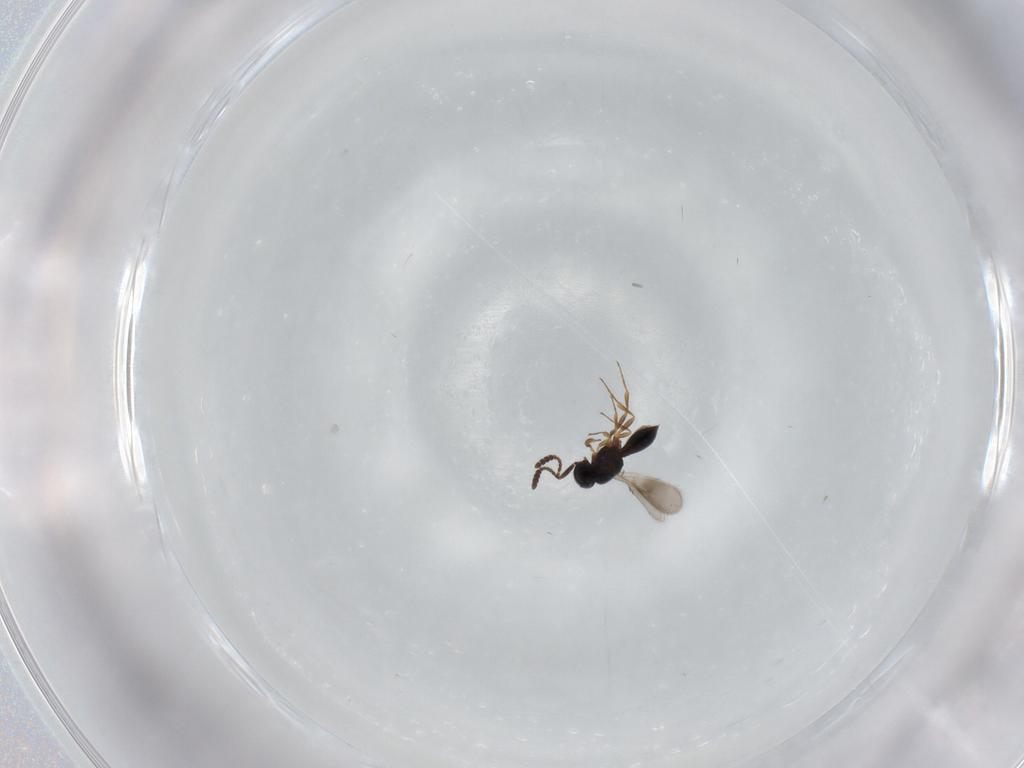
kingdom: Animalia
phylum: Arthropoda
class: Insecta
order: Hymenoptera
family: Scelionidae
